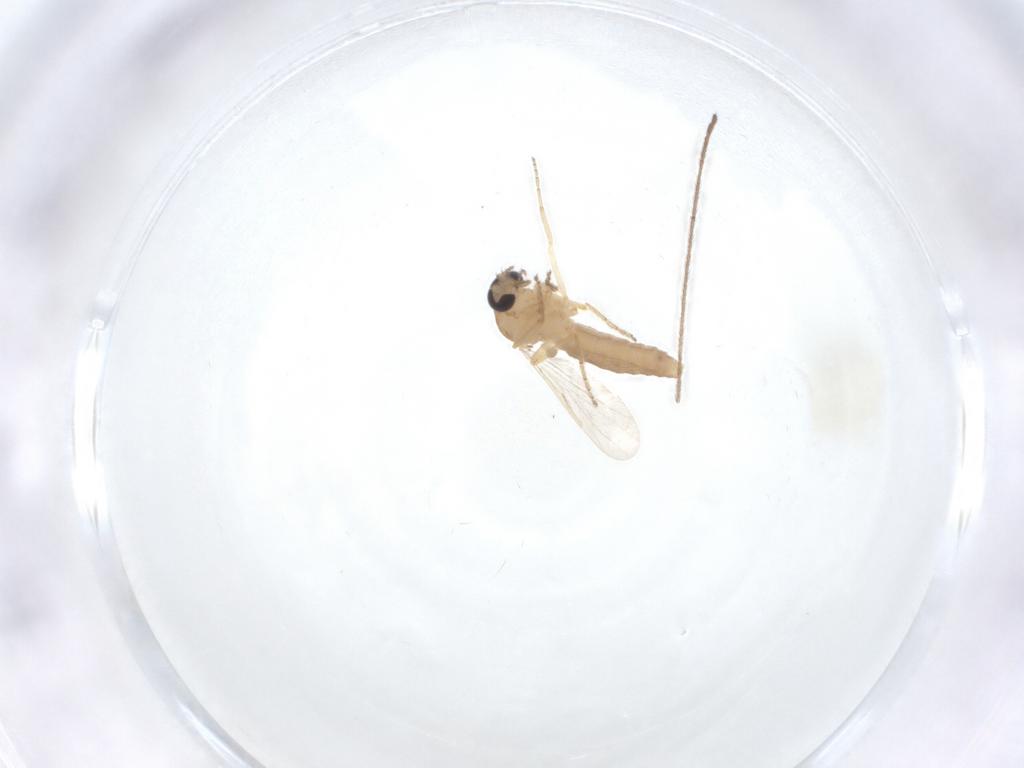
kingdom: Animalia
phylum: Arthropoda
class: Insecta
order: Diptera
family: Ceratopogonidae
